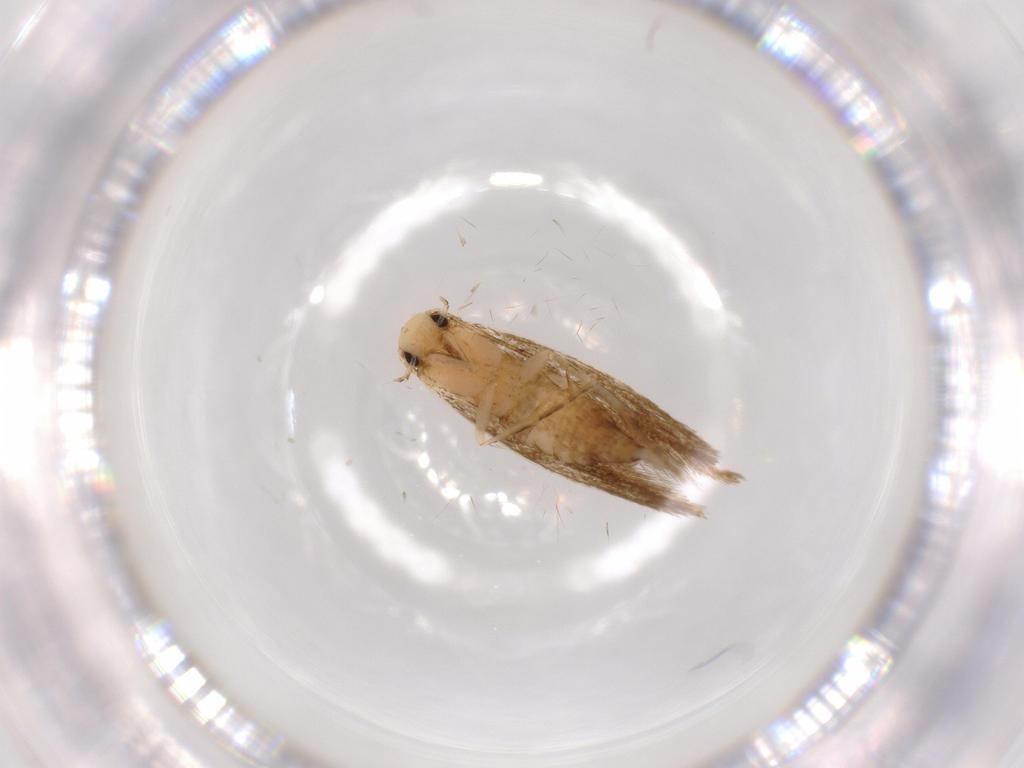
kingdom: Animalia
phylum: Arthropoda
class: Insecta
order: Lepidoptera
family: Tineidae
